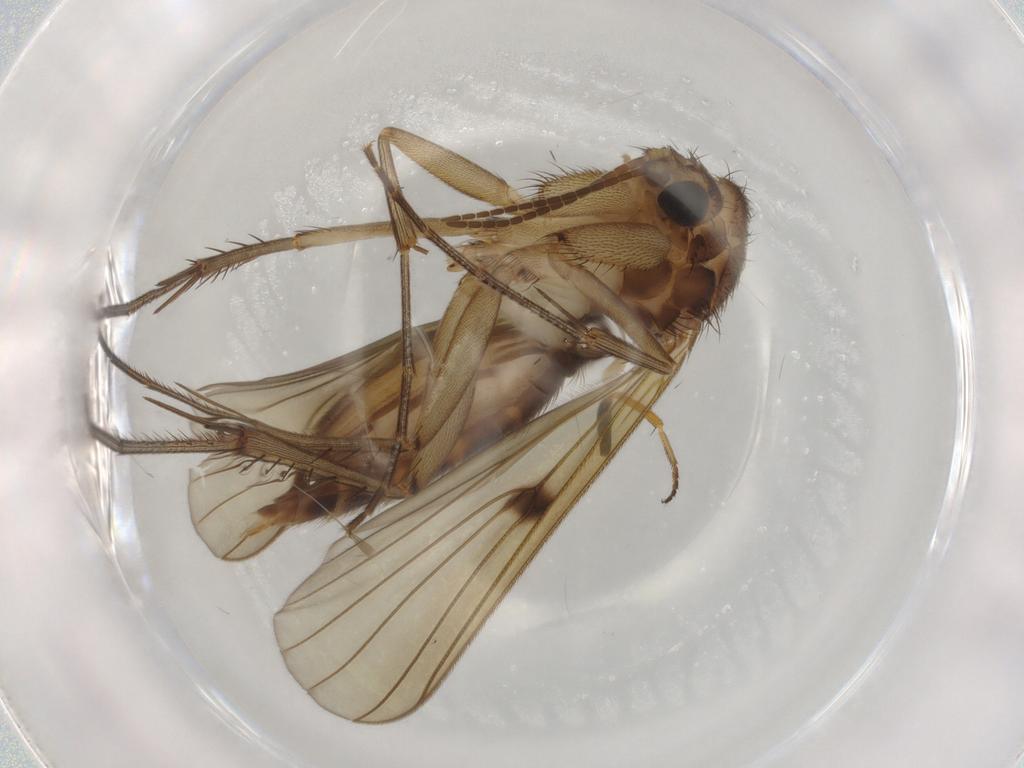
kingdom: Animalia
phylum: Arthropoda
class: Insecta
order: Diptera
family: Mycetophilidae
